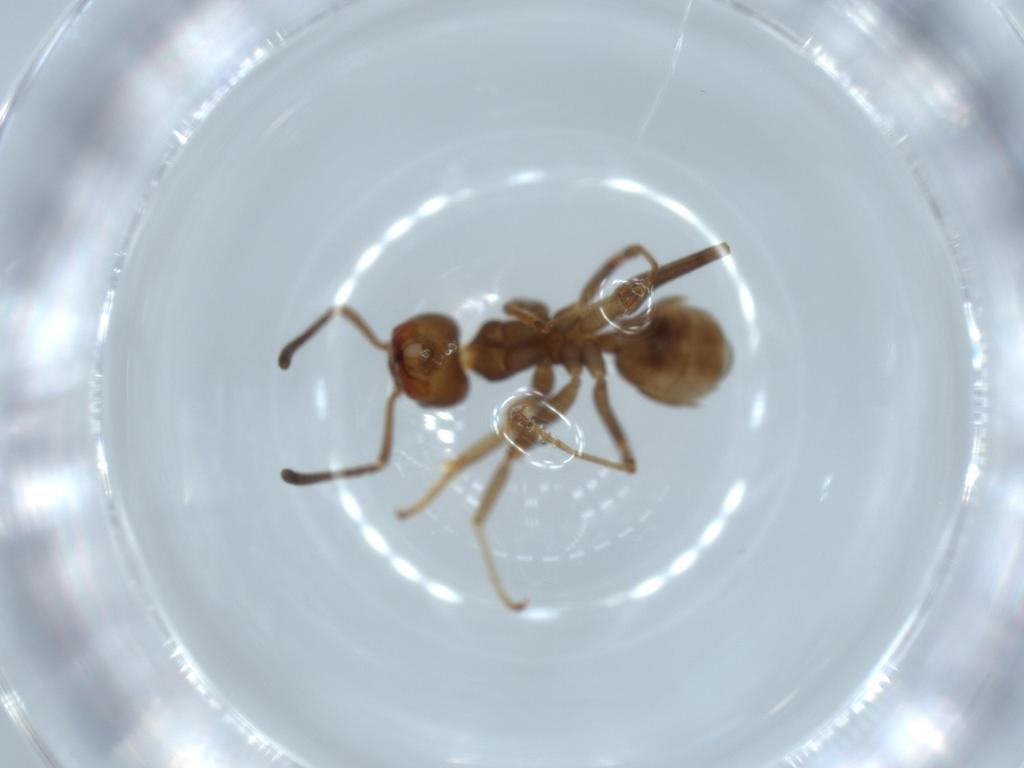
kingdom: Animalia
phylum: Arthropoda
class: Insecta
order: Hymenoptera
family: Formicidae
